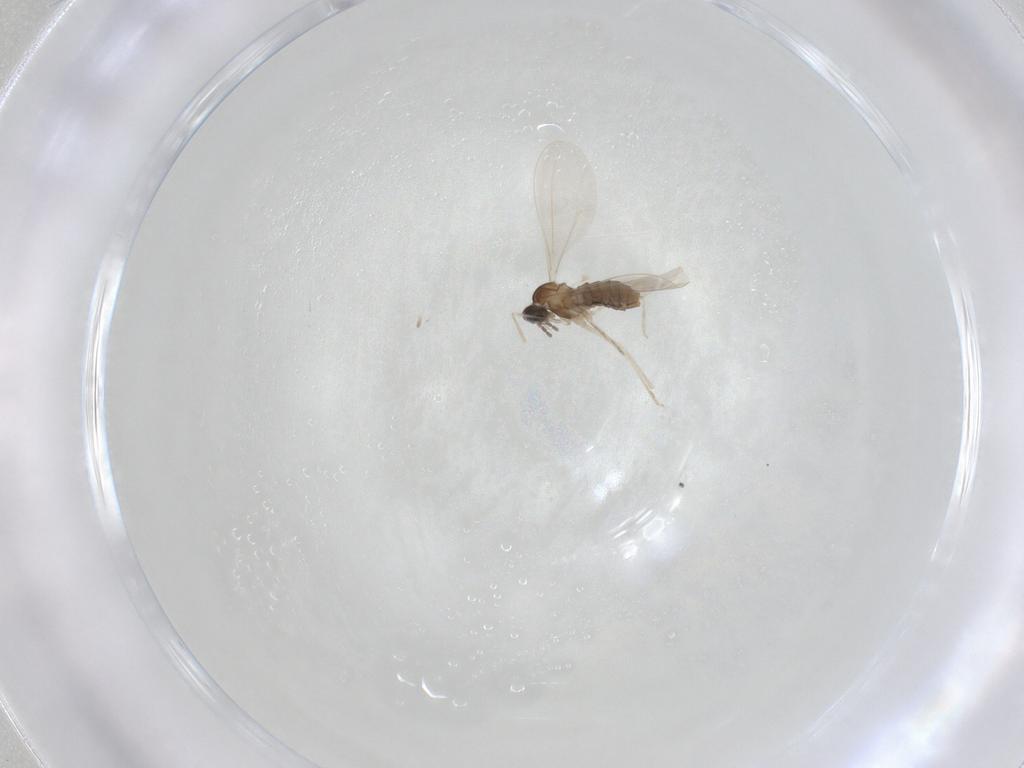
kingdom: Animalia
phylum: Arthropoda
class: Insecta
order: Diptera
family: Cecidomyiidae
